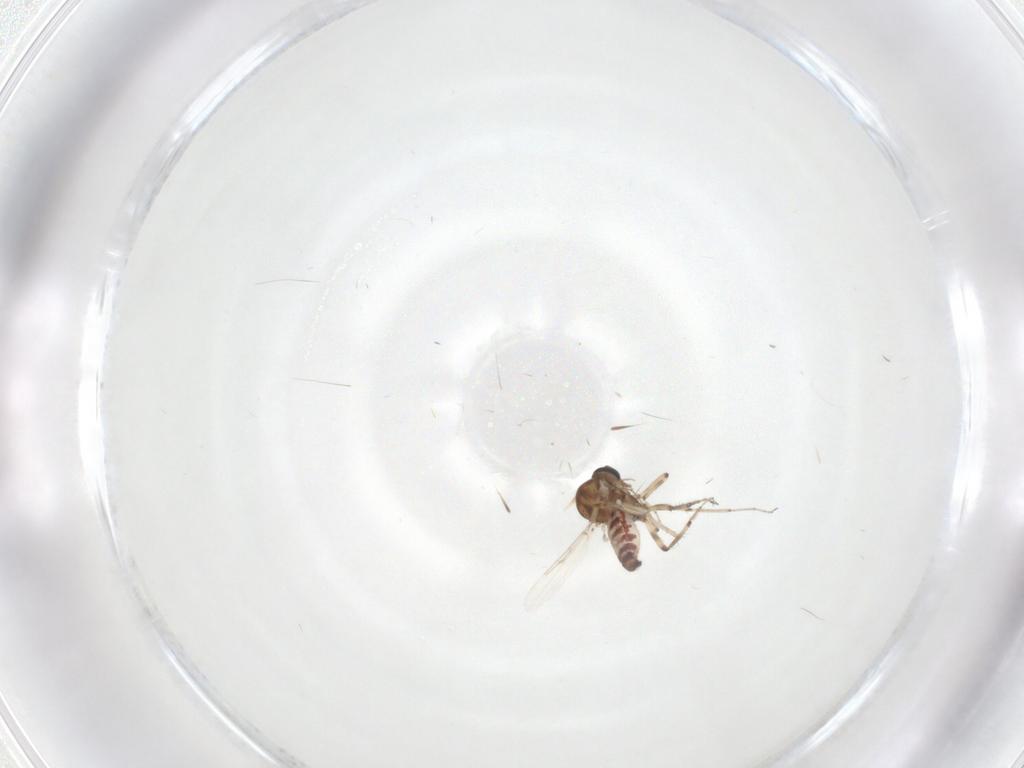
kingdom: Animalia
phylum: Arthropoda
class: Insecta
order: Diptera
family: Ceratopogonidae
